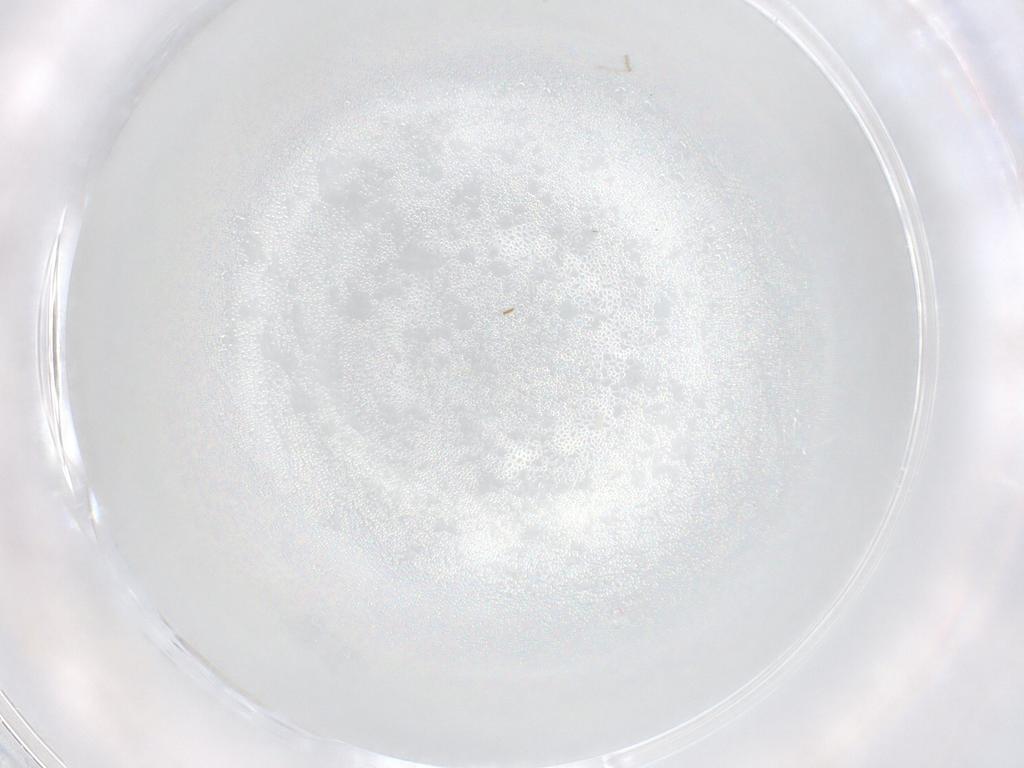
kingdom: Animalia
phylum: Arthropoda
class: Insecta
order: Diptera
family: Cecidomyiidae
